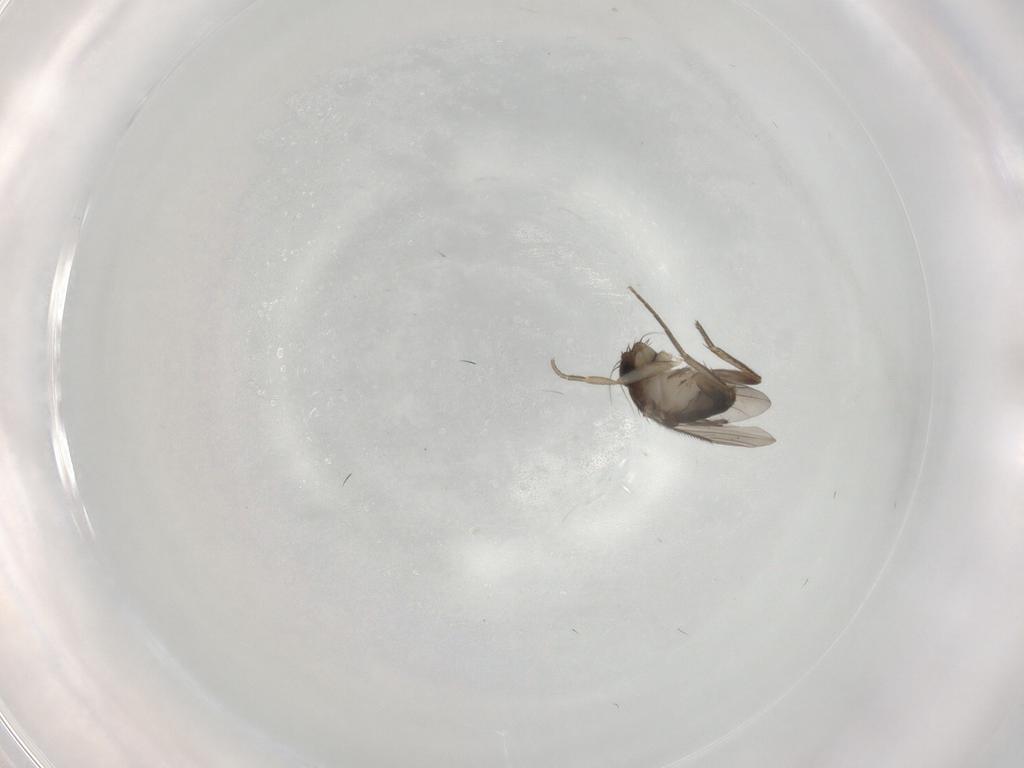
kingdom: Animalia
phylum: Arthropoda
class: Insecta
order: Diptera
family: Phoridae
